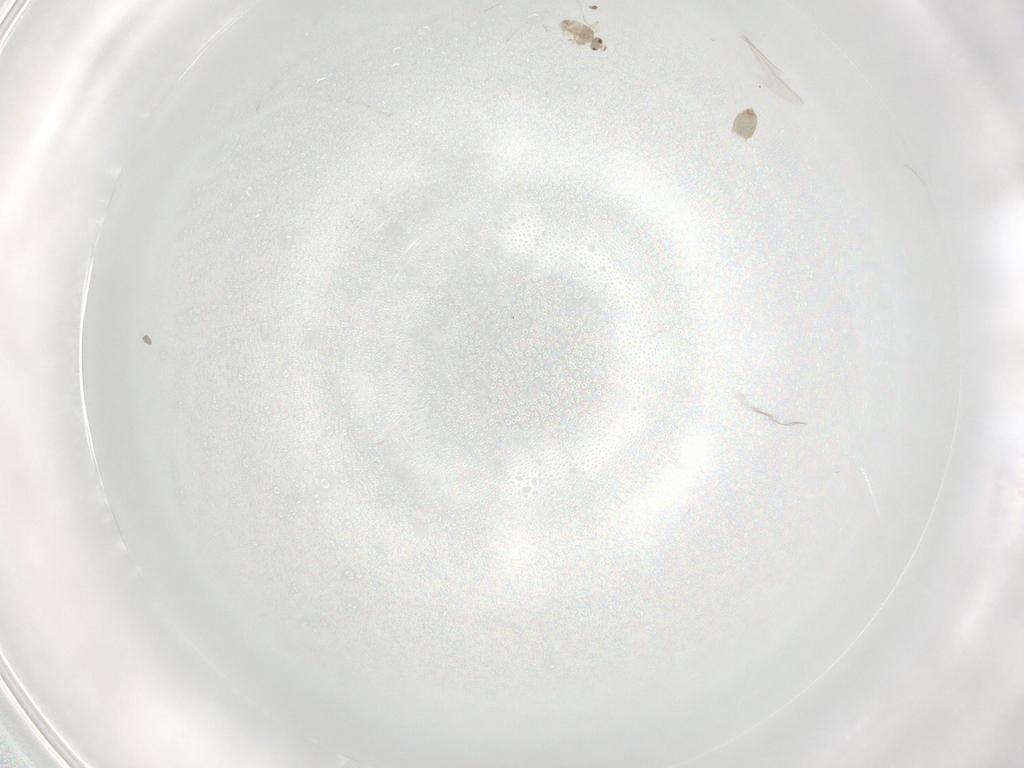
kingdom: Animalia
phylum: Arthropoda
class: Insecta
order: Diptera
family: Cecidomyiidae
